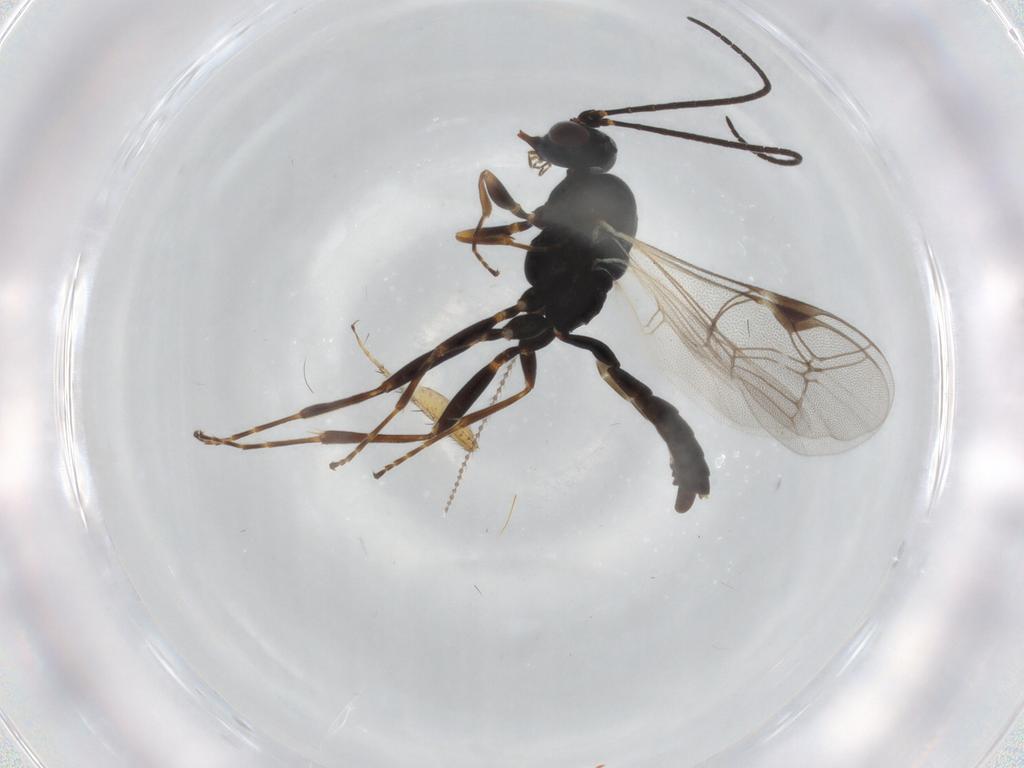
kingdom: Animalia
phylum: Arthropoda
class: Insecta
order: Hymenoptera
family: Ichneumonidae
